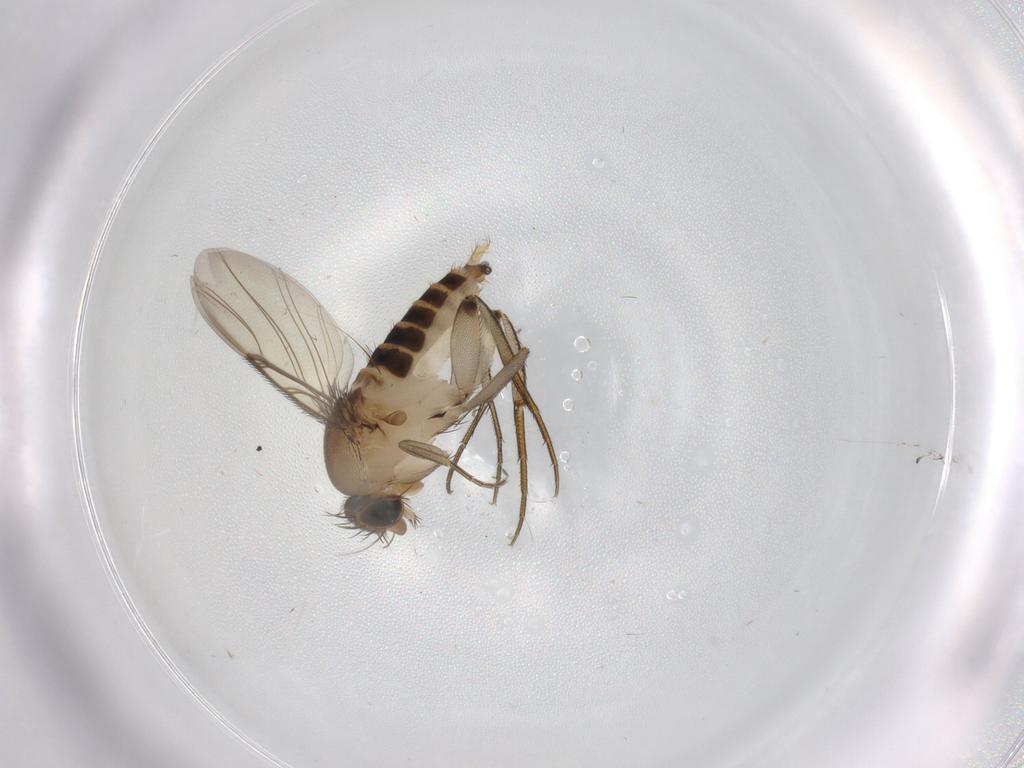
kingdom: Animalia
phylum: Arthropoda
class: Insecta
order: Diptera
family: Phoridae
